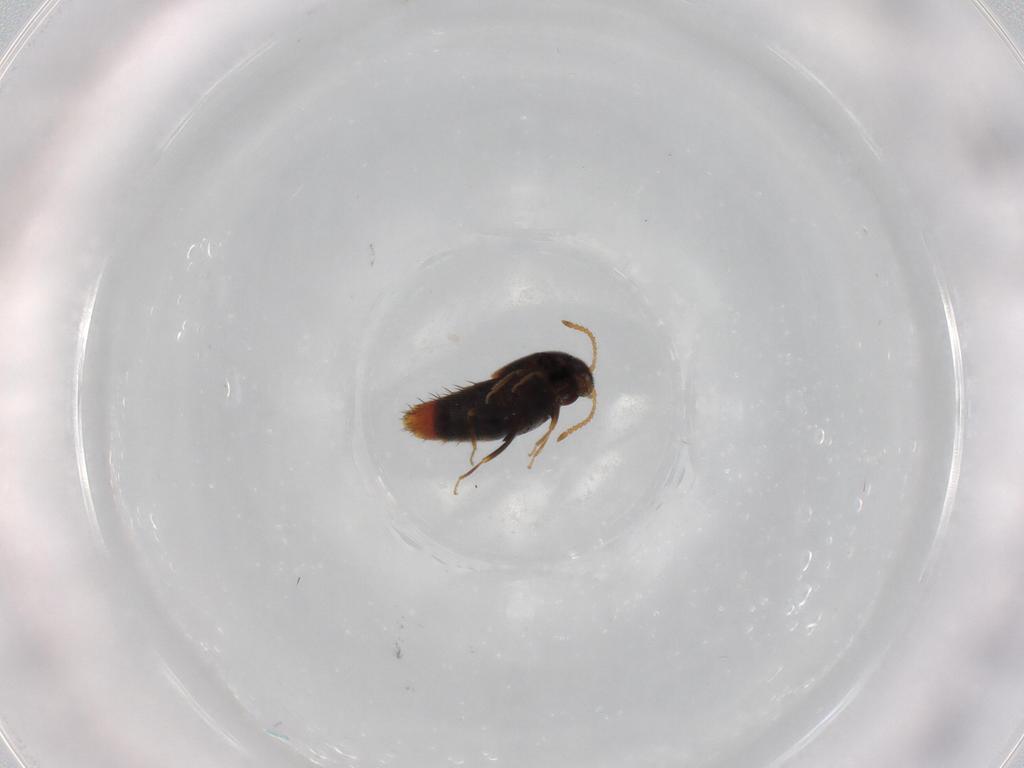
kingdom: Animalia
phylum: Arthropoda
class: Insecta
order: Coleoptera
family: Staphylinidae
